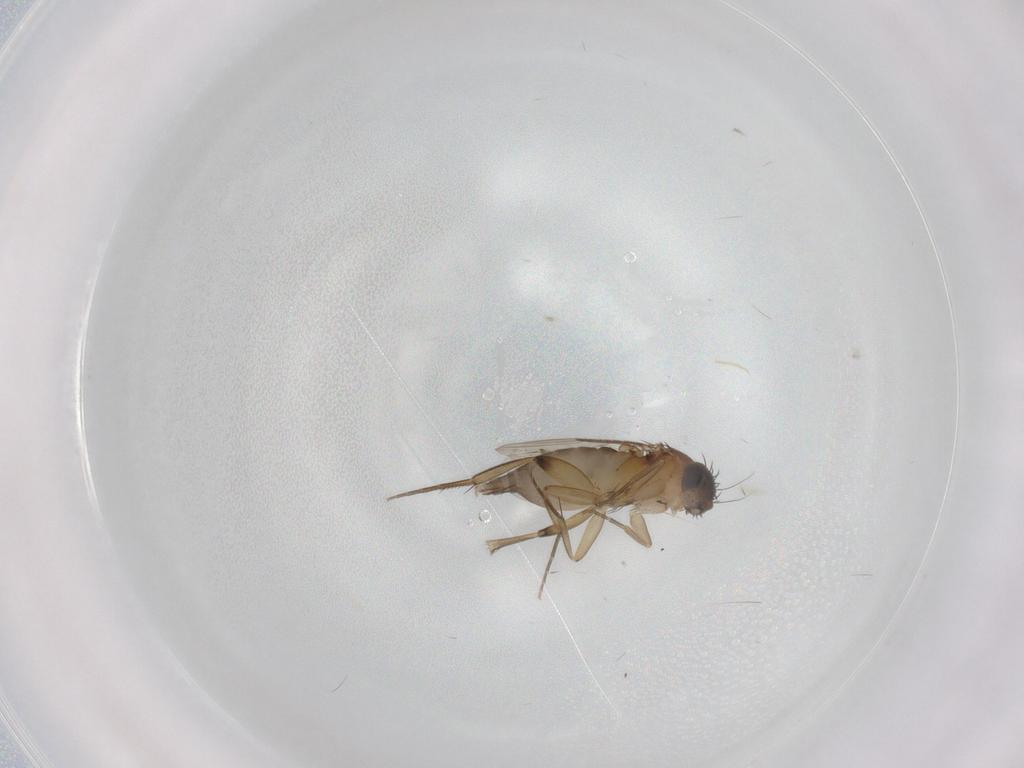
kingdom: Animalia
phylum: Arthropoda
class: Insecta
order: Diptera
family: Phoridae
